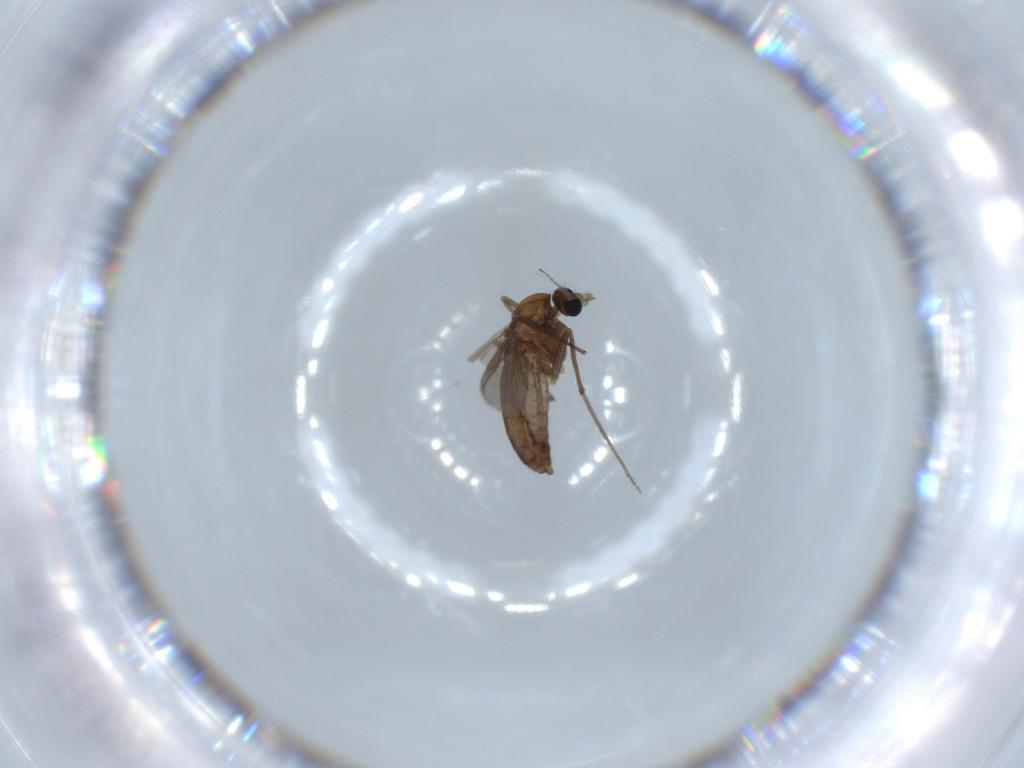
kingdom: Animalia
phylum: Arthropoda
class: Insecta
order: Diptera
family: Chironomidae
